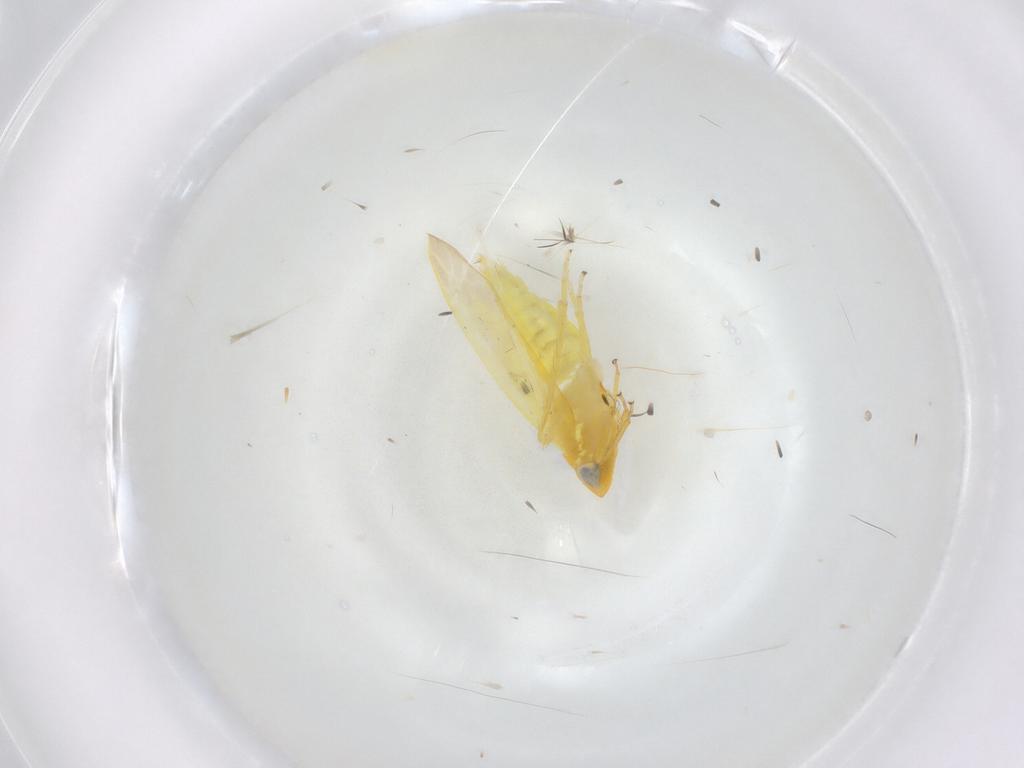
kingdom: Animalia
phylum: Arthropoda
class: Insecta
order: Hemiptera
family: Cicadellidae
